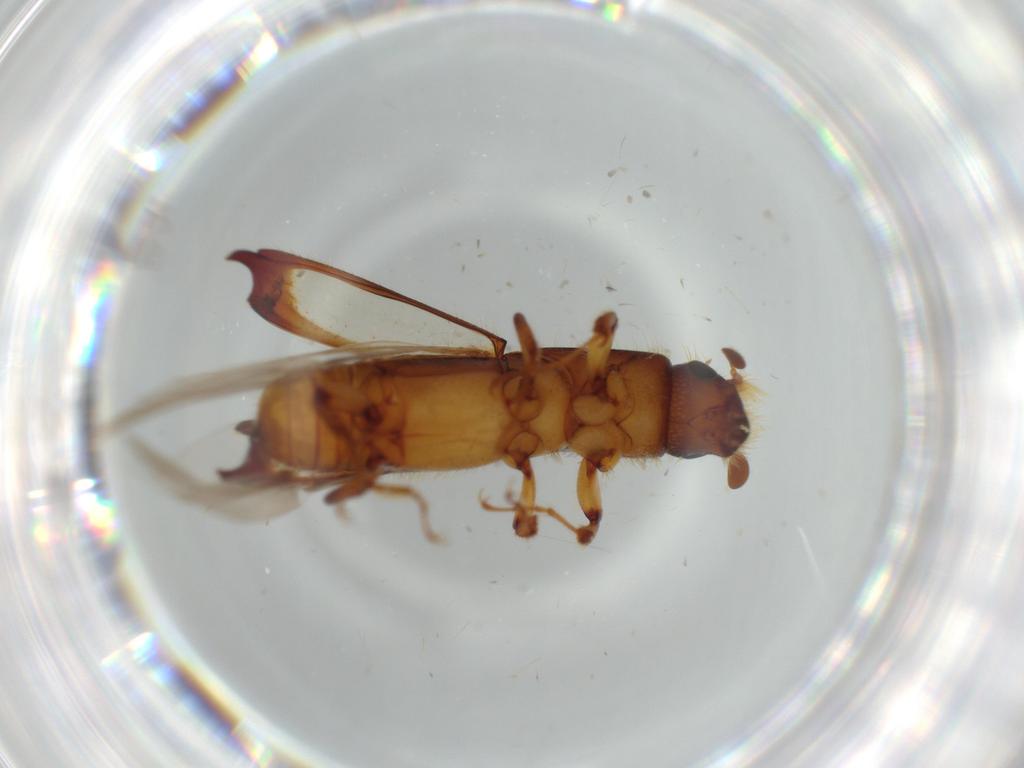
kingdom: Animalia
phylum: Arthropoda
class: Insecta
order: Coleoptera
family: Curculionidae
